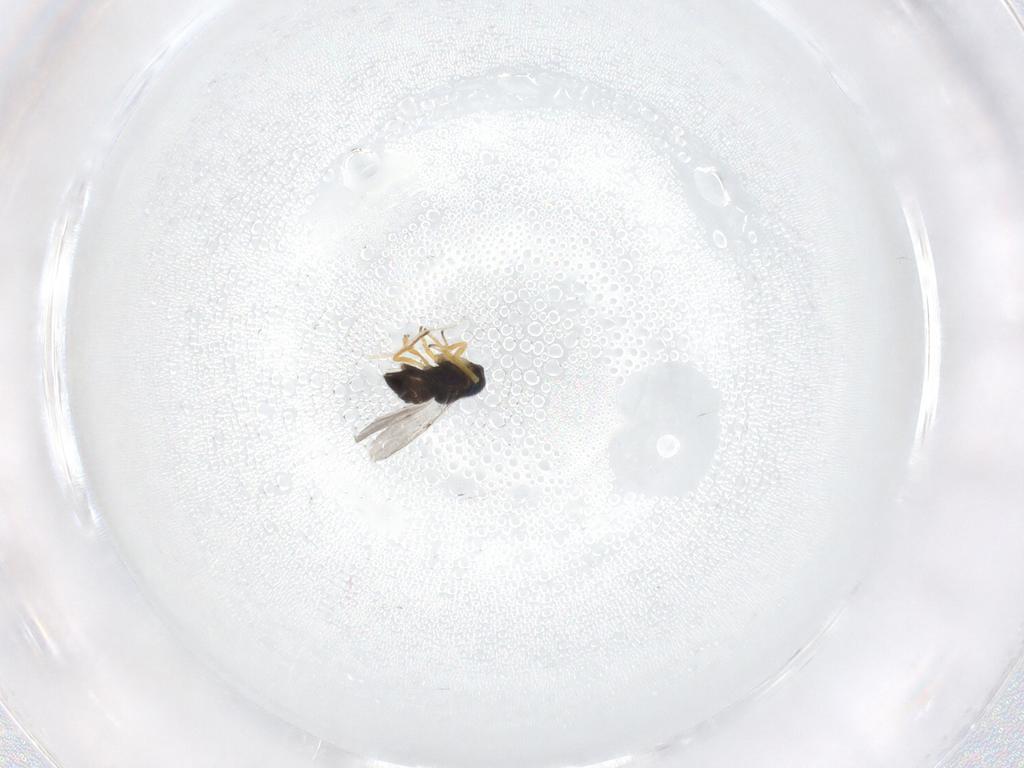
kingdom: Animalia
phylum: Arthropoda
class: Insecta
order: Hymenoptera
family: Encyrtidae
